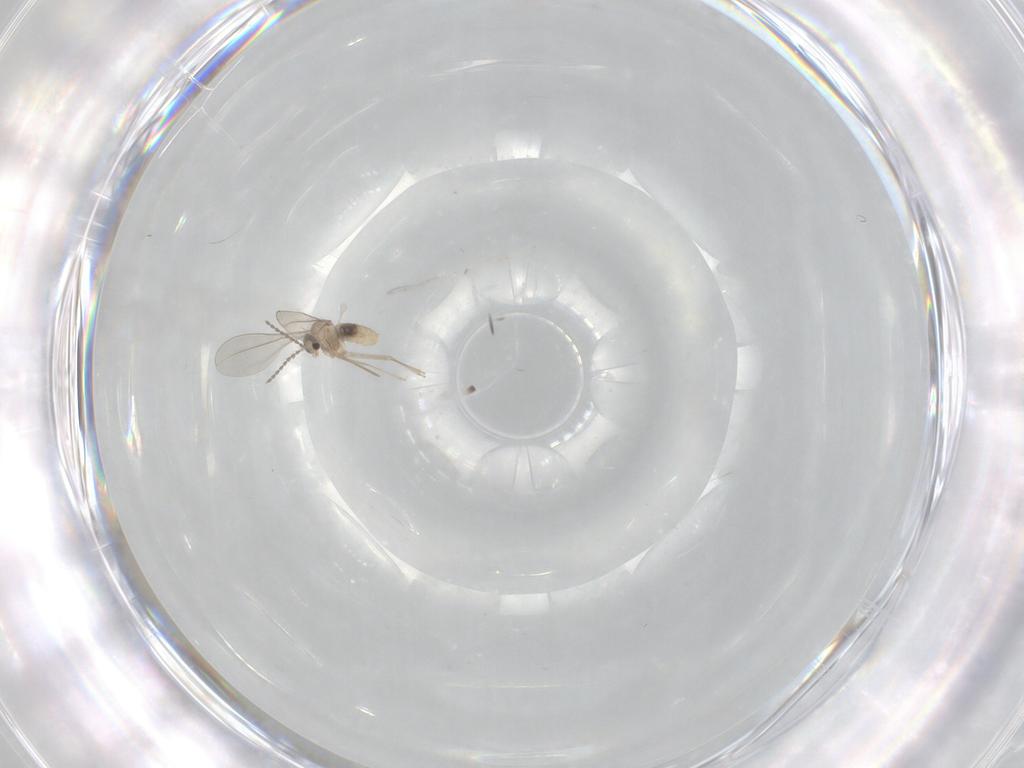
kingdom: Animalia
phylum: Arthropoda
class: Insecta
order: Diptera
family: Cecidomyiidae
